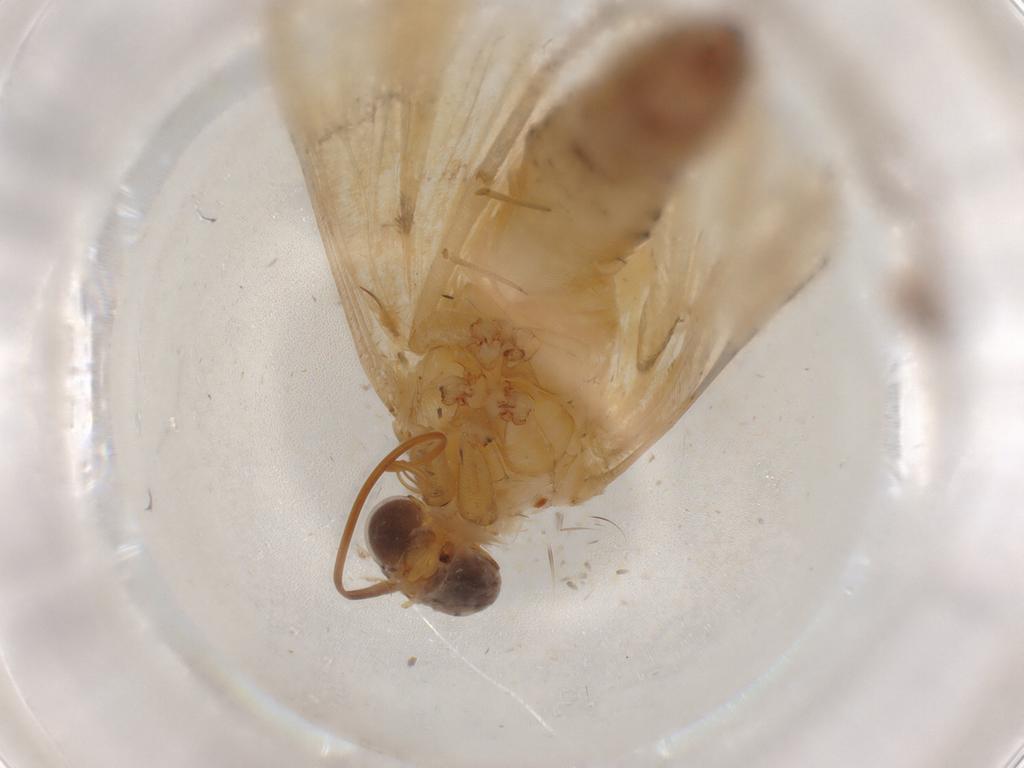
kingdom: Animalia
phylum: Arthropoda
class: Insecta
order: Lepidoptera
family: Crambidae
